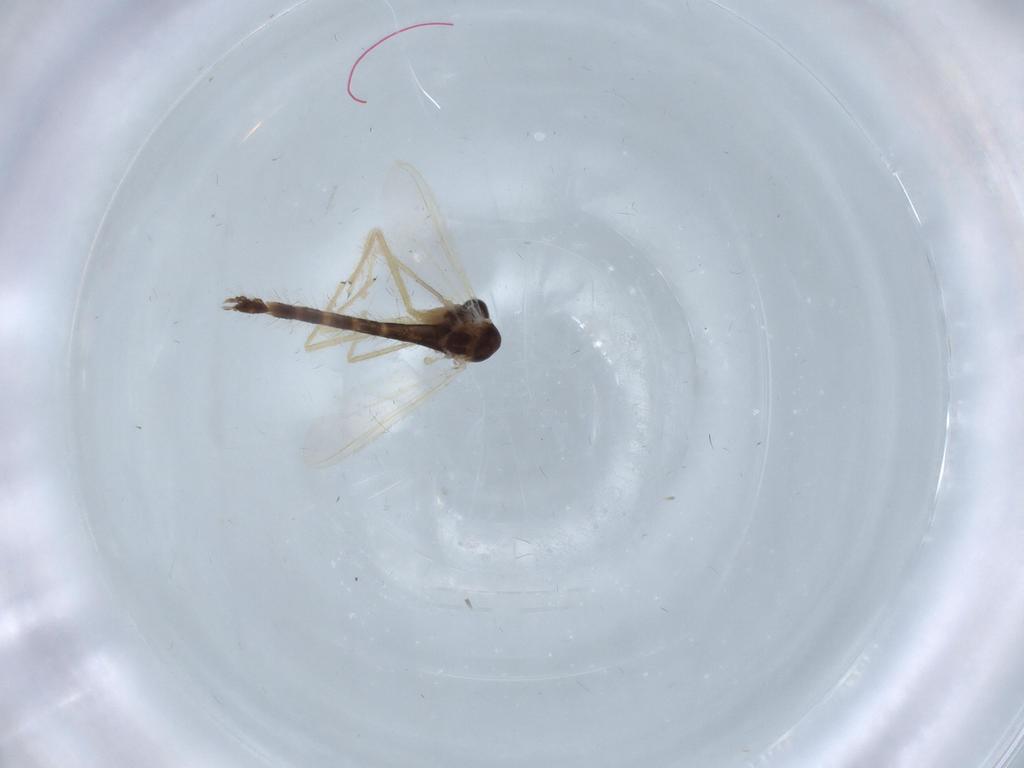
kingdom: Animalia
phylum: Arthropoda
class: Insecta
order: Diptera
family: Chironomidae
